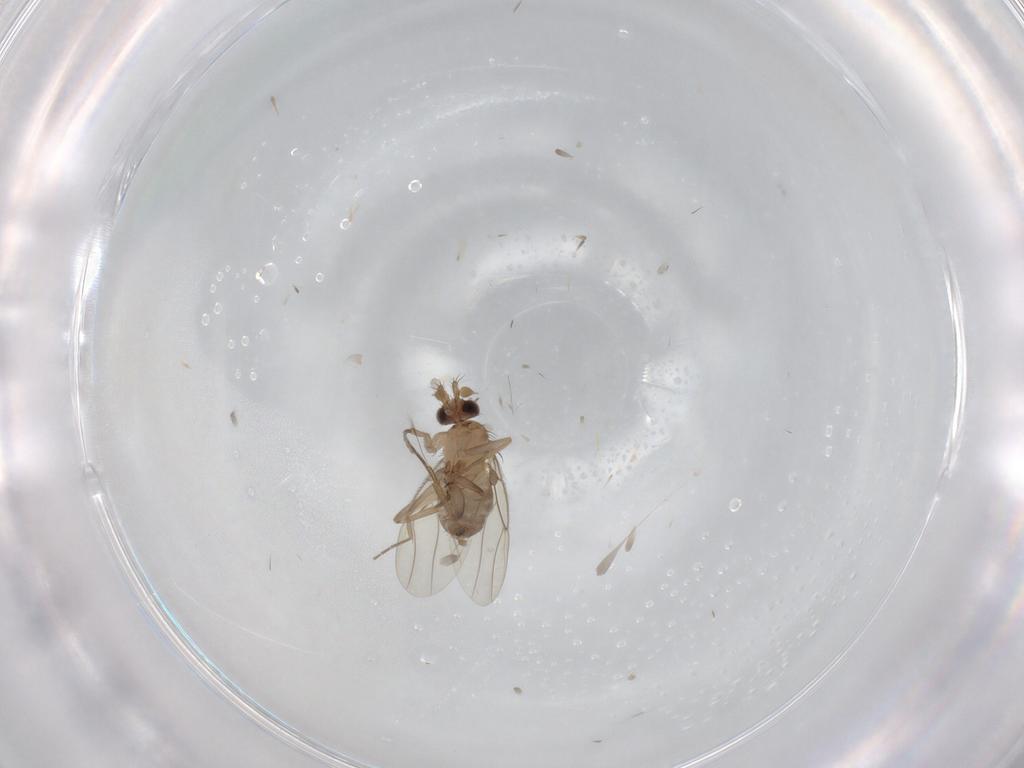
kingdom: Animalia
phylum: Arthropoda
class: Insecta
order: Diptera
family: Phoridae
